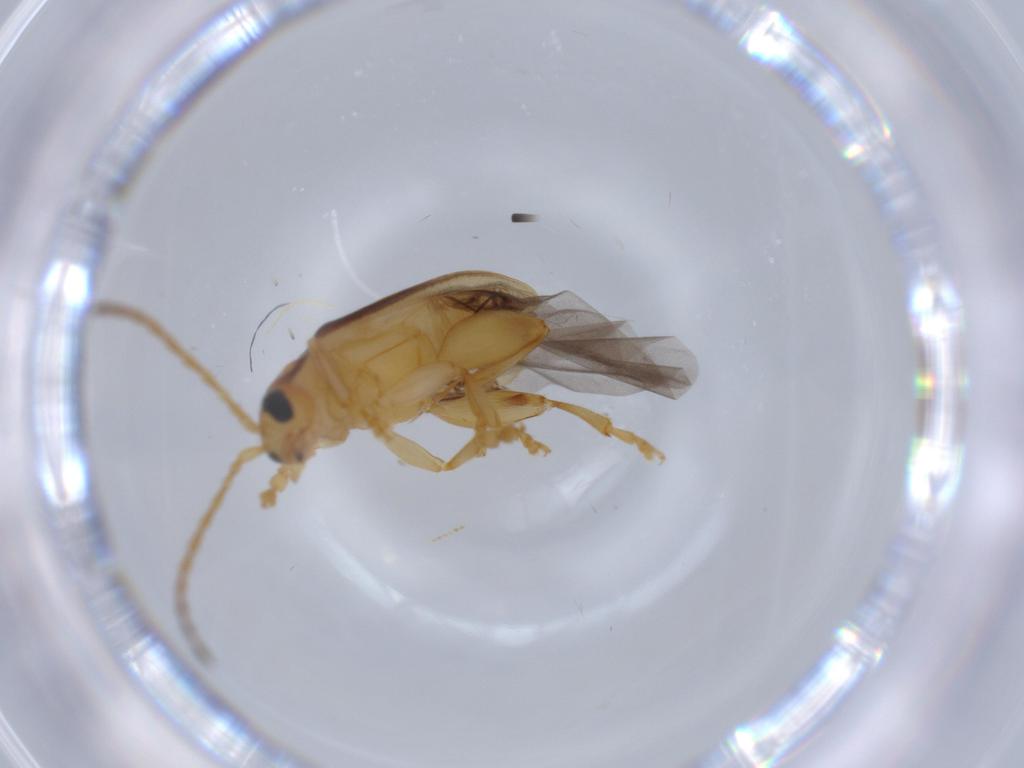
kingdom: Animalia
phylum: Arthropoda
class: Insecta
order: Coleoptera
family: Chrysomelidae
